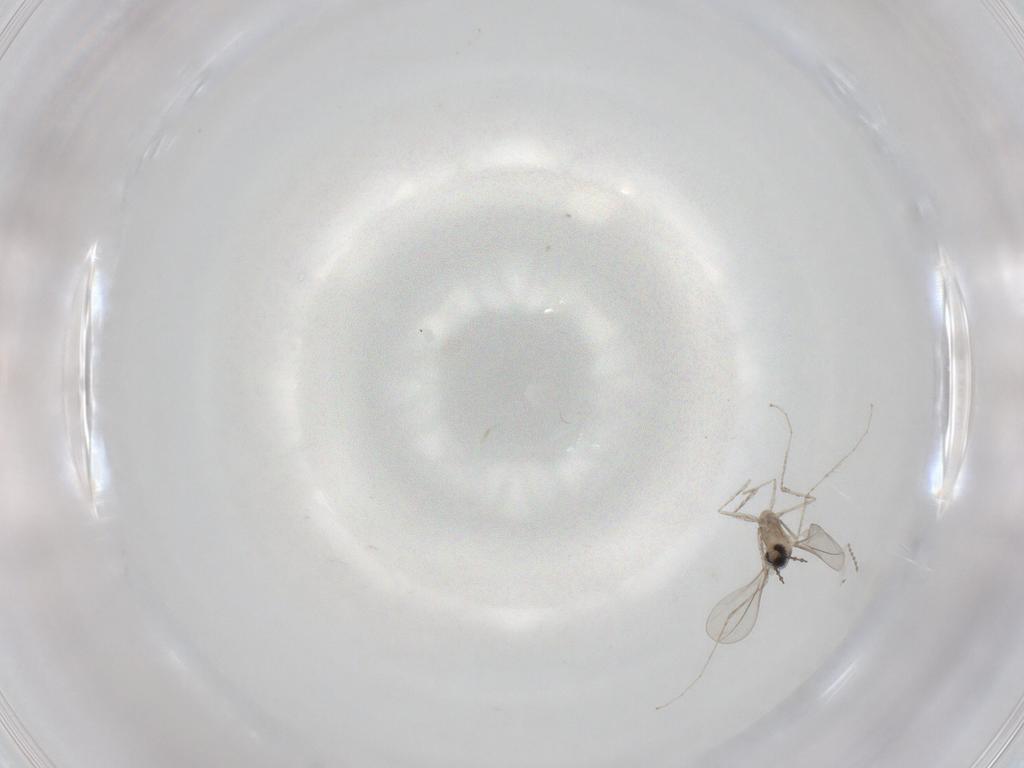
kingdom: Animalia
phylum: Arthropoda
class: Insecta
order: Diptera
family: Cecidomyiidae
